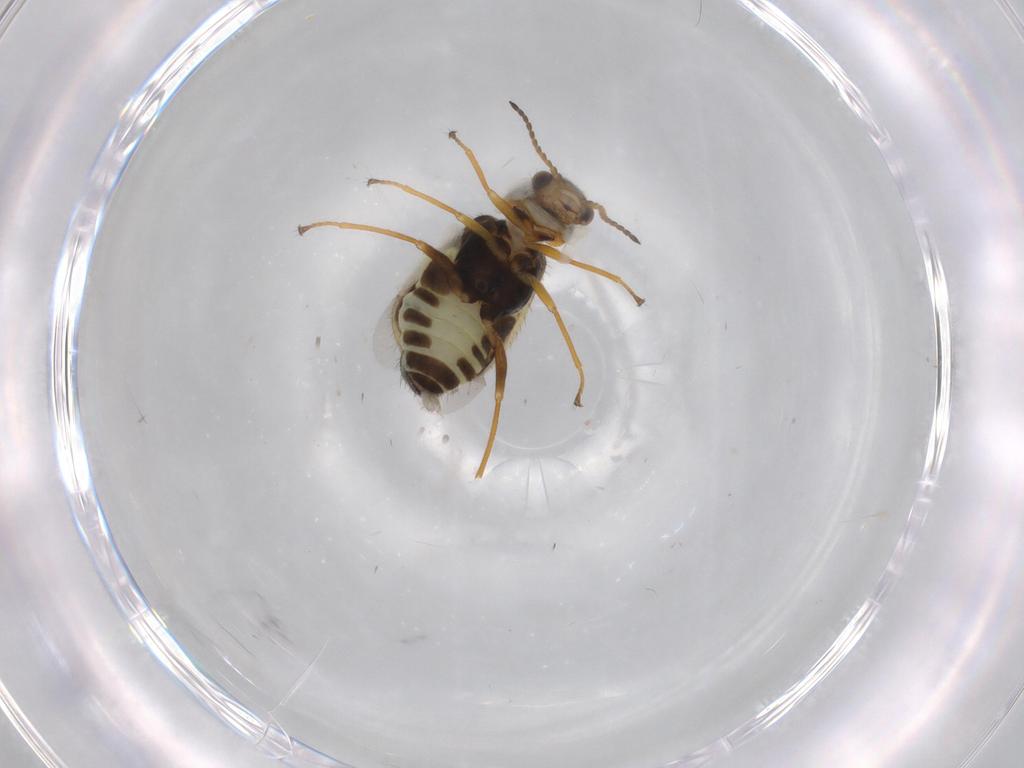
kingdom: Animalia
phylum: Arthropoda
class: Insecta
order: Coleoptera
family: Melyridae
